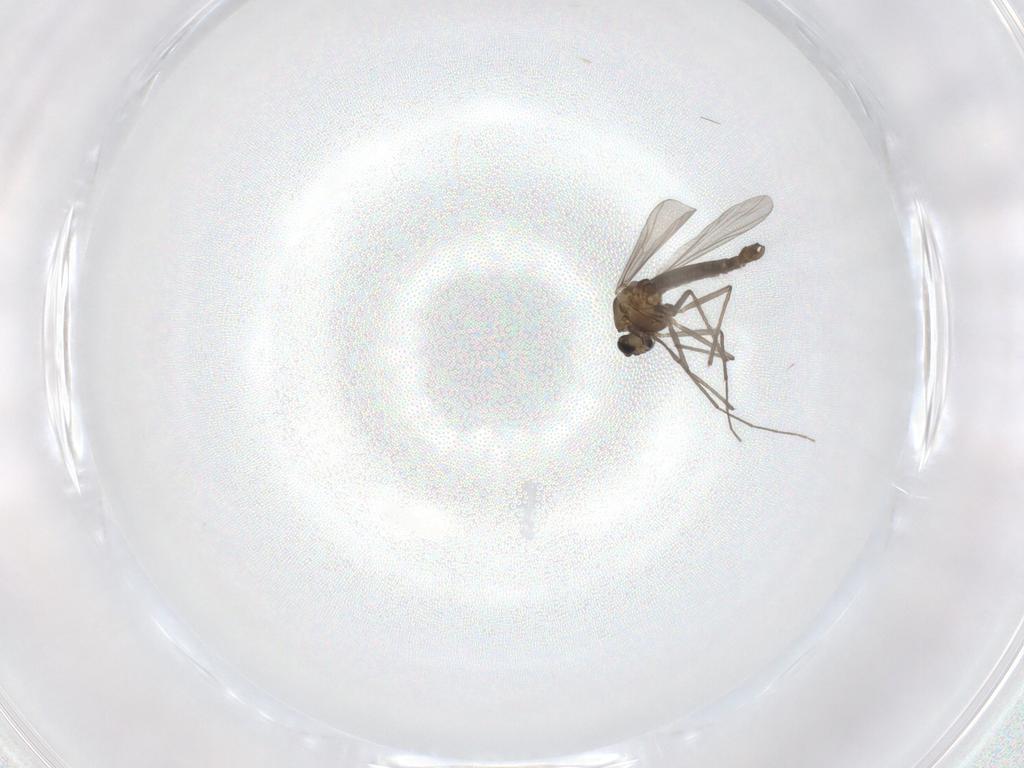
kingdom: Animalia
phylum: Arthropoda
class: Insecta
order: Diptera
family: Chironomidae
